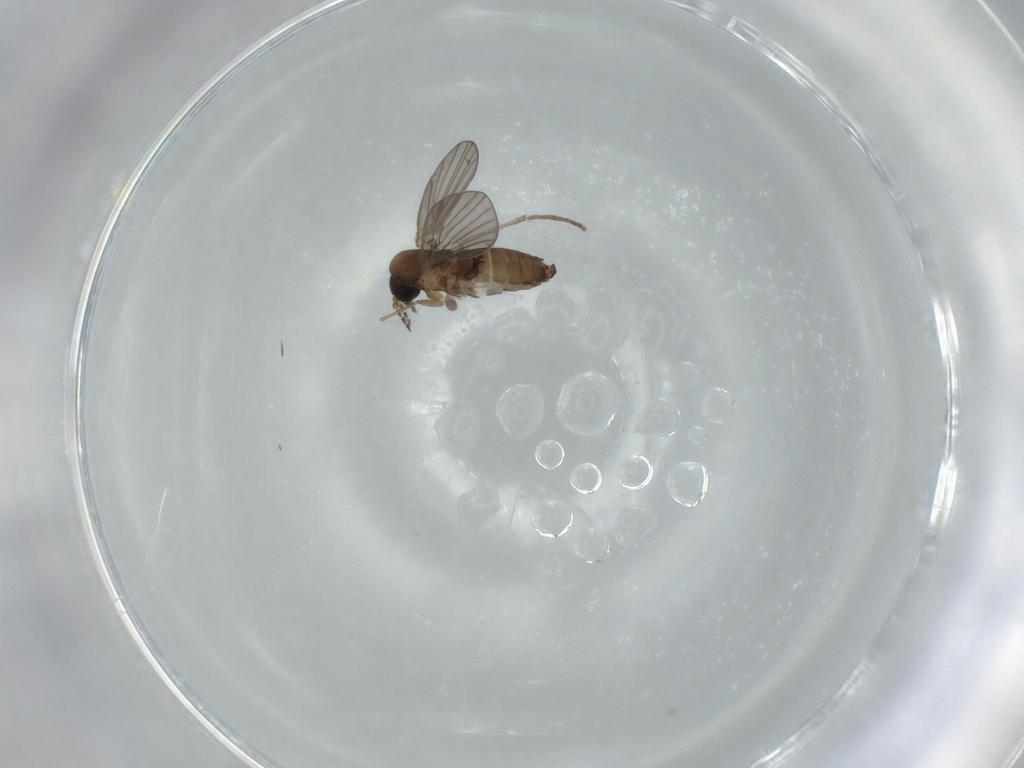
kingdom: Animalia
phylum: Arthropoda
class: Insecta
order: Diptera
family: Psychodidae
